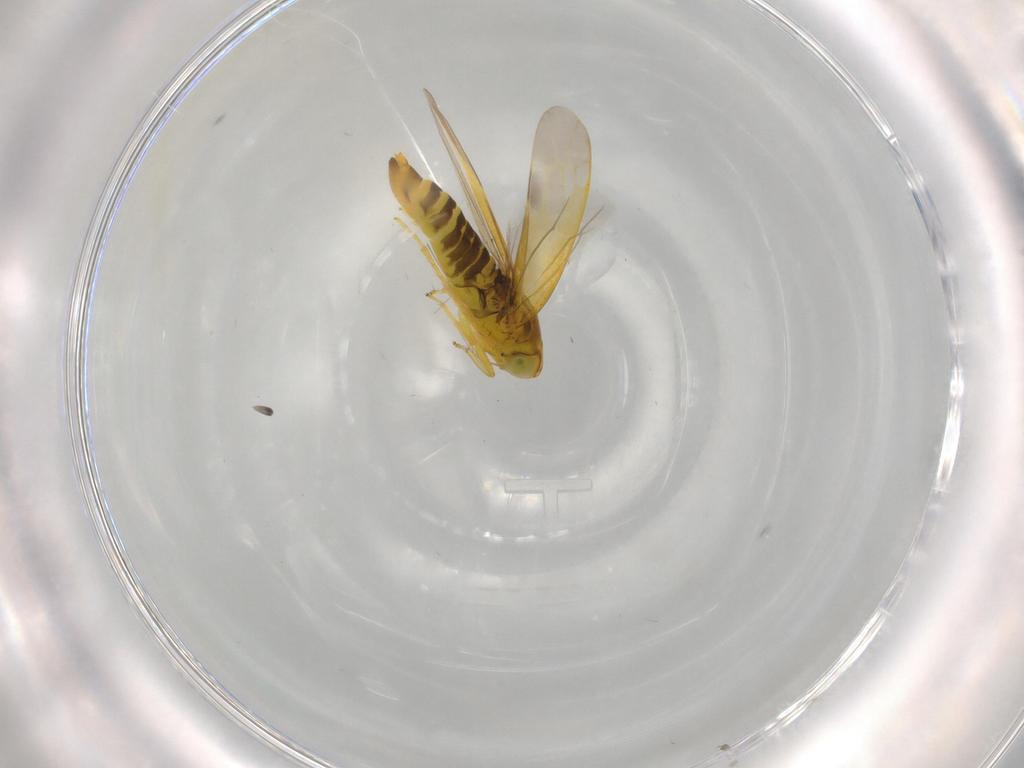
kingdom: Animalia
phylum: Arthropoda
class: Insecta
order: Hemiptera
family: Cicadellidae
